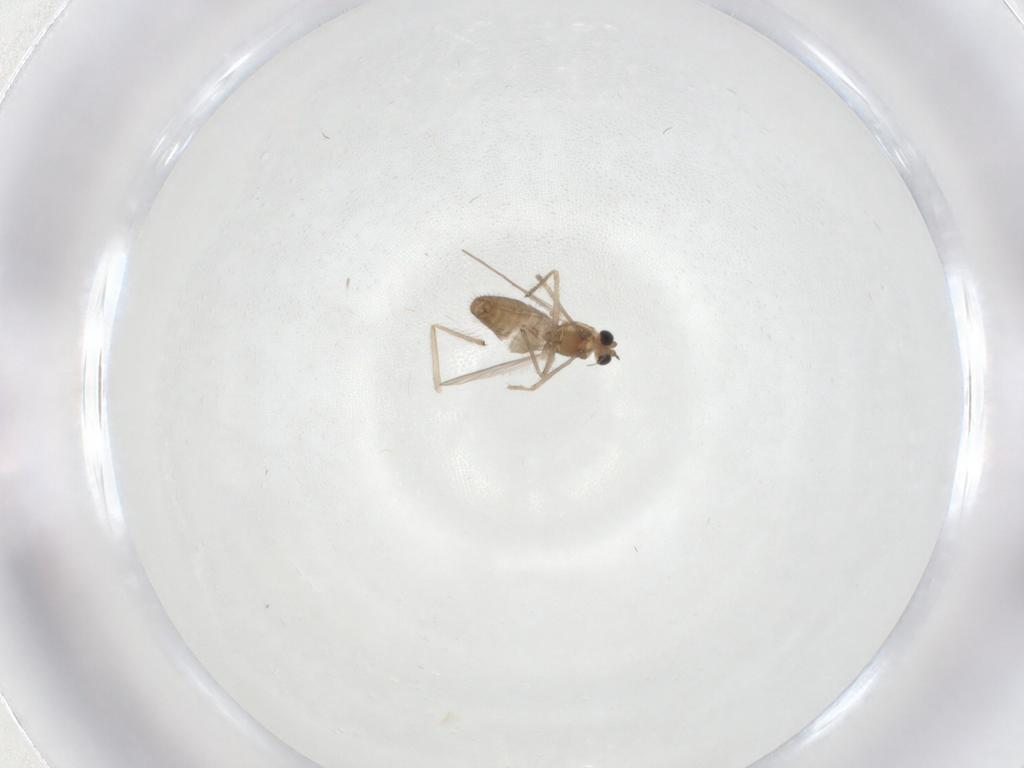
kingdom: Animalia
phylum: Arthropoda
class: Insecta
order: Diptera
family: Chironomidae
